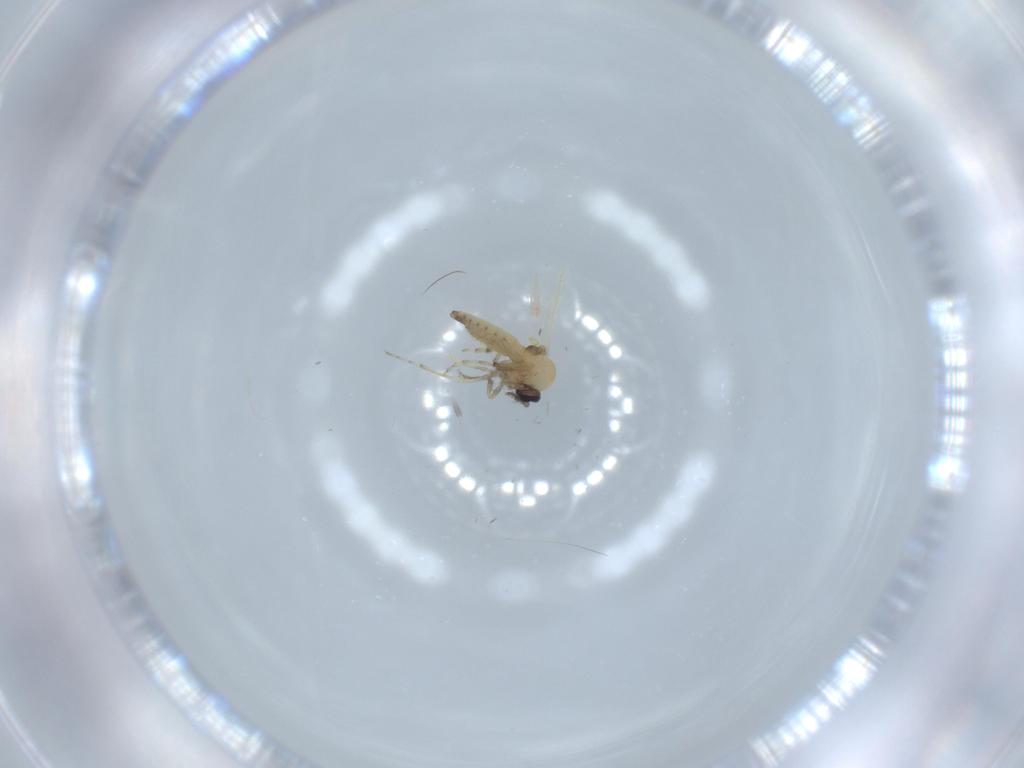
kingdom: Animalia
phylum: Arthropoda
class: Insecta
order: Diptera
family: Ceratopogonidae
